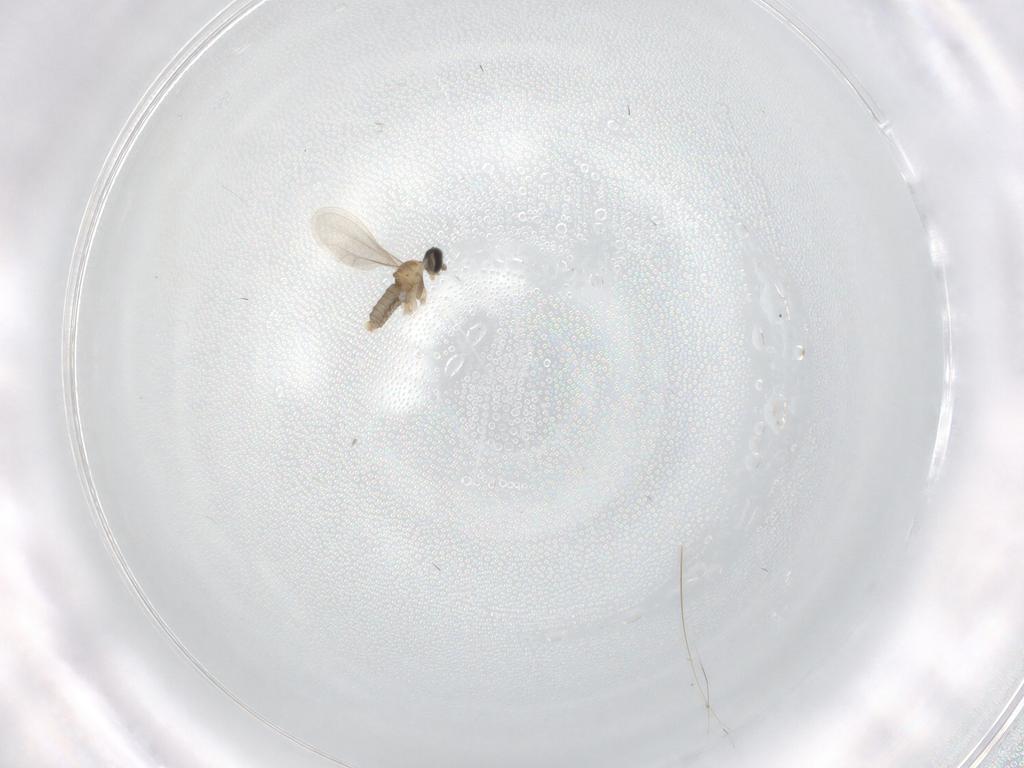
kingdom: Animalia
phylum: Arthropoda
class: Insecta
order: Diptera
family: Cecidomyiidae
